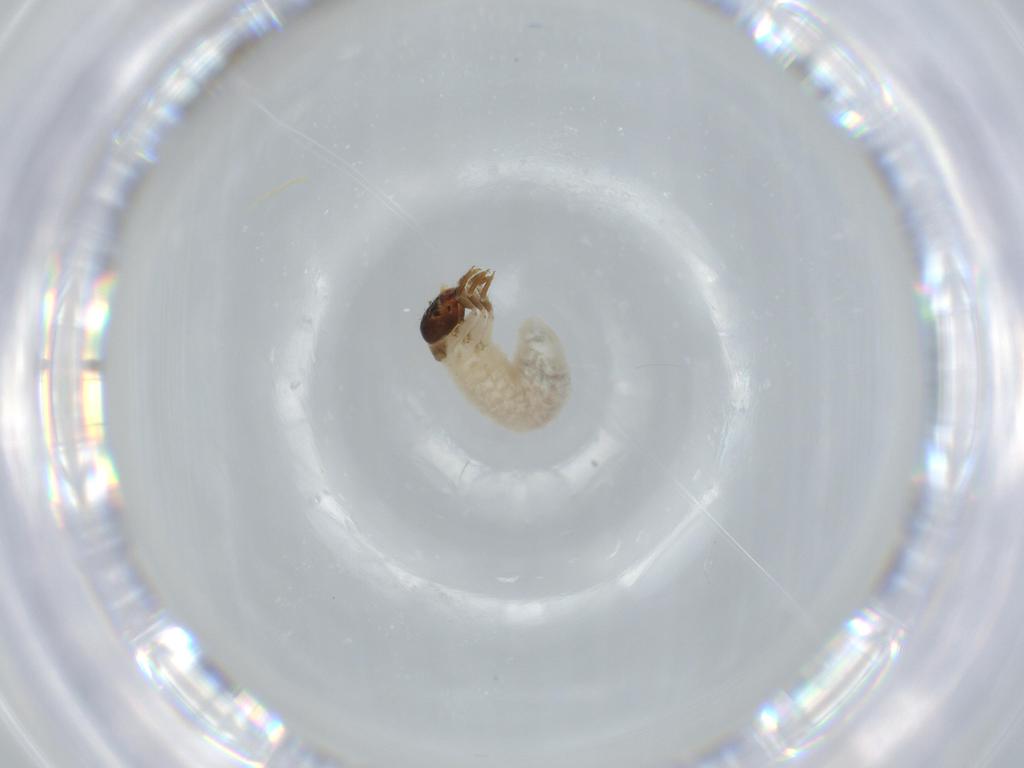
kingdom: Animalia
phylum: Arthropoda
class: Insecta
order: Coleoptera
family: Chrysomelidae
